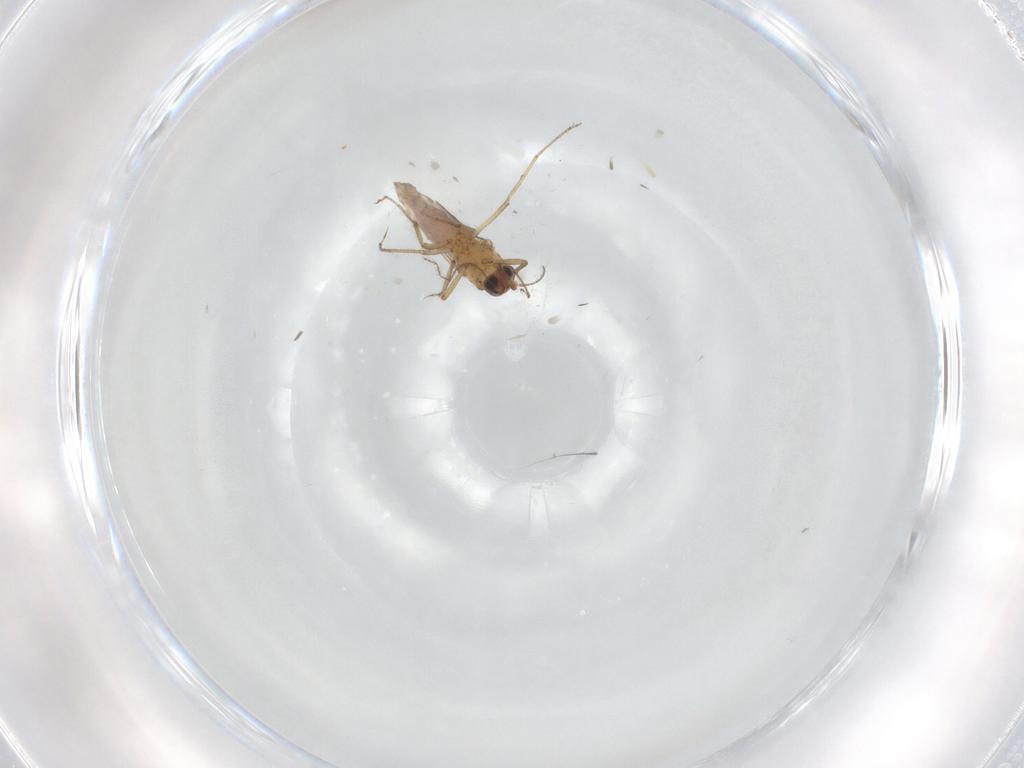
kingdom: Animalia
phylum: Arthropoda
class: Insecta
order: Diptera
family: Ceratopogonidae
